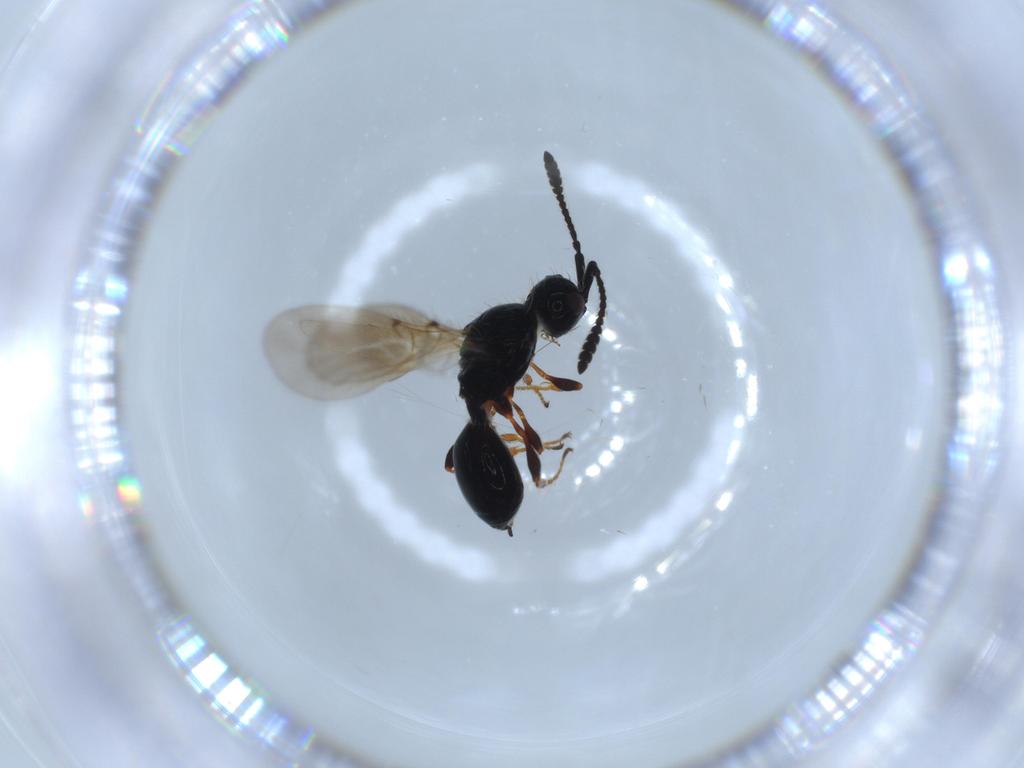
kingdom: Animalia
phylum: Arthropoda
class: Insecta
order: Hymenoptera
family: Diapriidae
